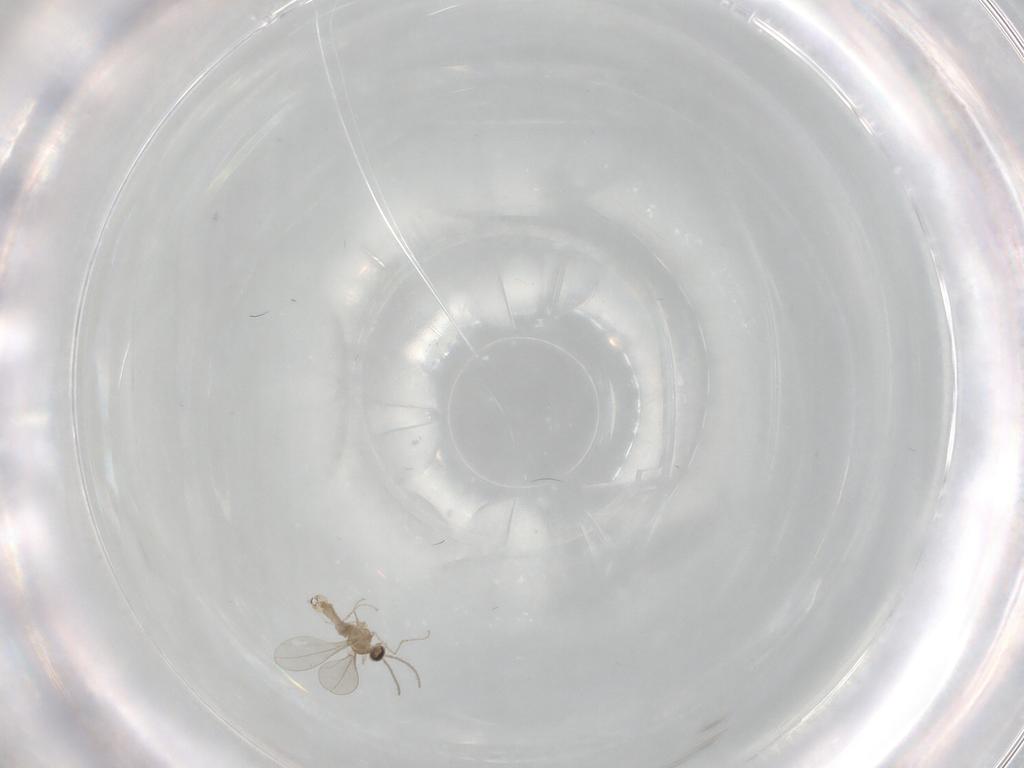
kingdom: Animalia
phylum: Arthropoda
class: Insecta
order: Diptera
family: Cecidomyiidae
